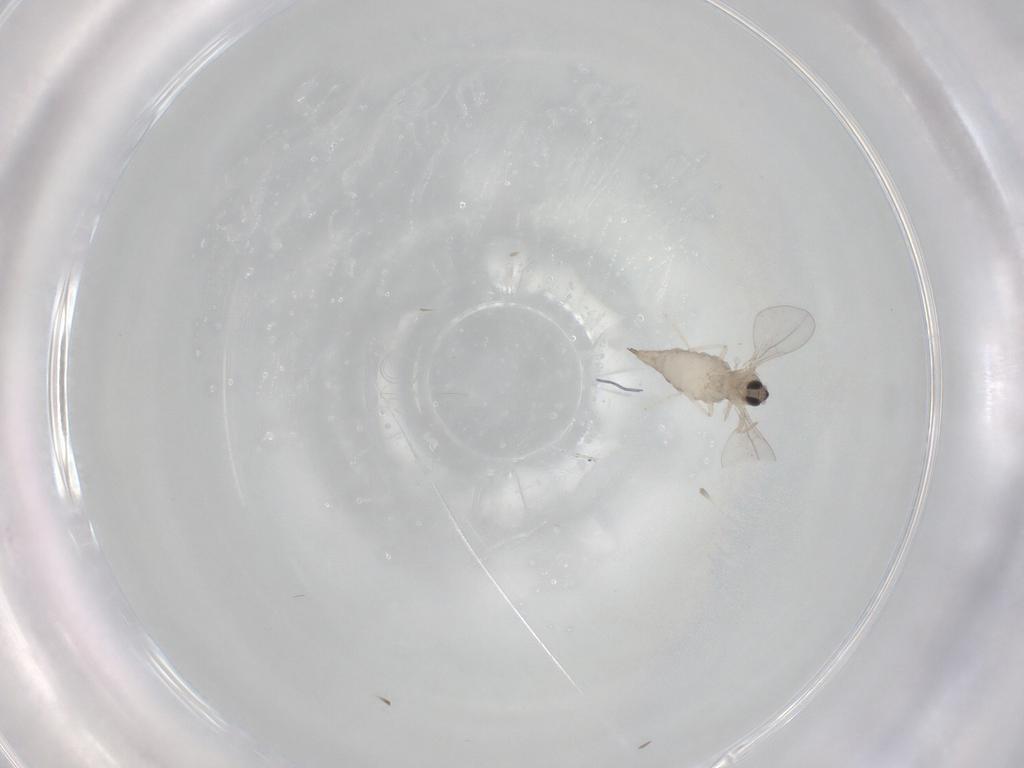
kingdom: Animalia
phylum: Arthropoda
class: Insecta
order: Diptera
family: Cecidomyiidae
